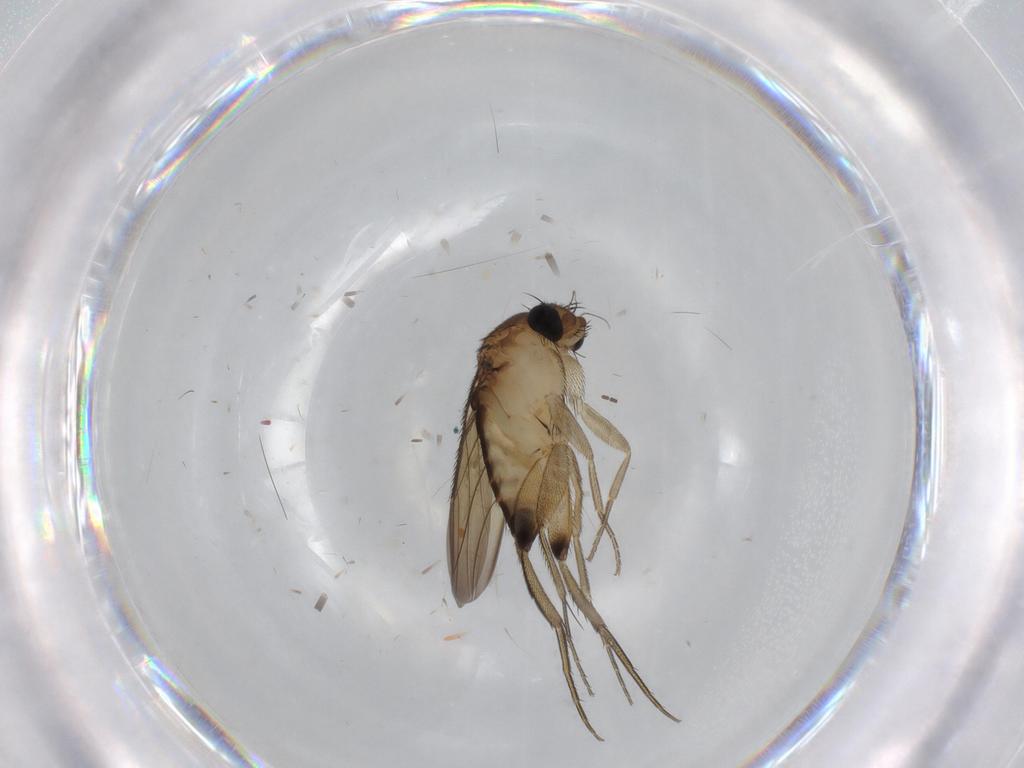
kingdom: Animalia
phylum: Arthropoda
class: Insecta
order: Diptera
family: Phoridae
